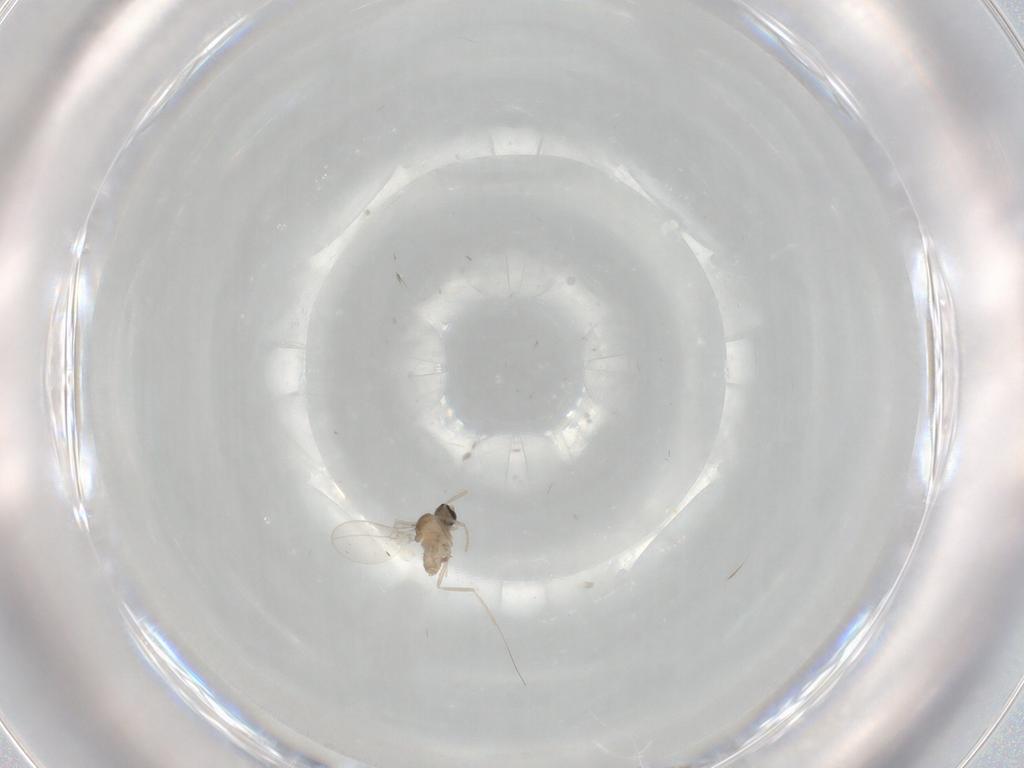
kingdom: Animalia
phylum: Arthropoda
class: Insecta
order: Diptera
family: Cecidomyiidae
